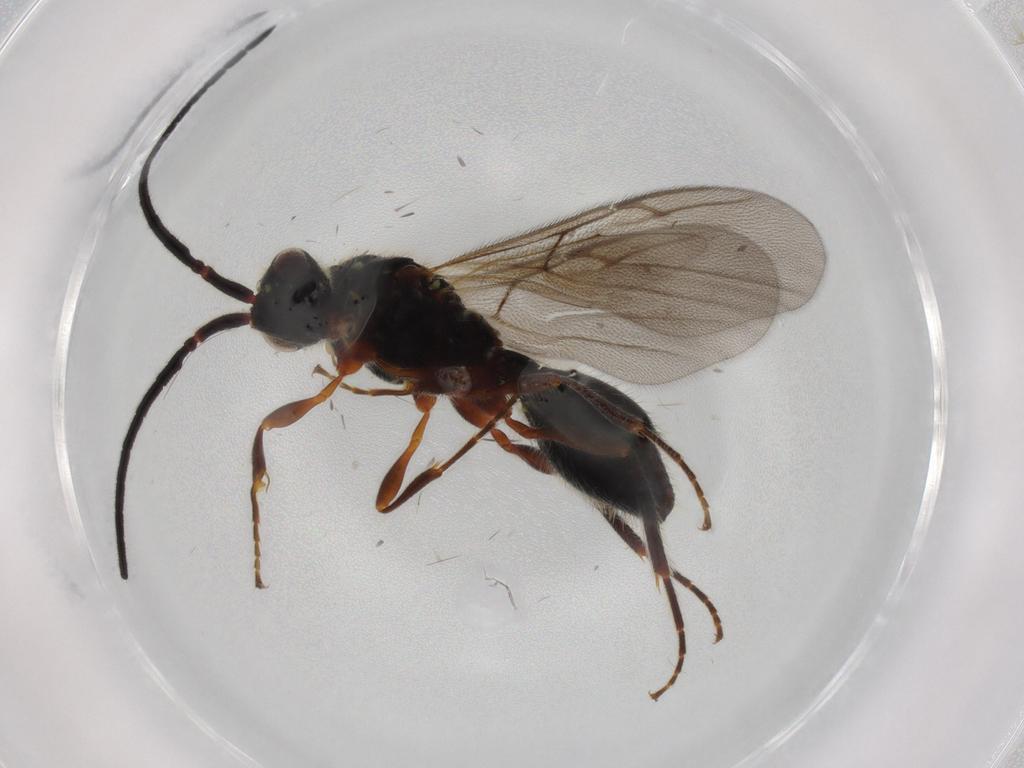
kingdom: Animalia
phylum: Arthropoda
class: Insecta
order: Hymenoptera
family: Diapriidae
